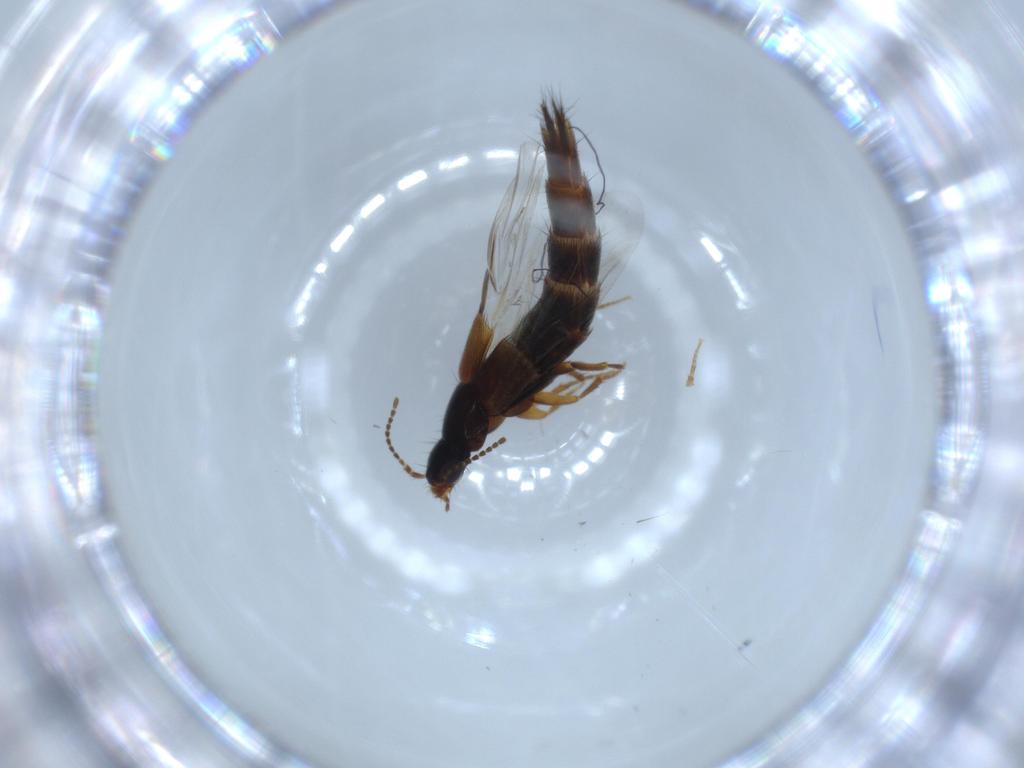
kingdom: Animalia
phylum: Arthropoda
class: Insecta
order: Coleoptera
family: Staphylinidae
